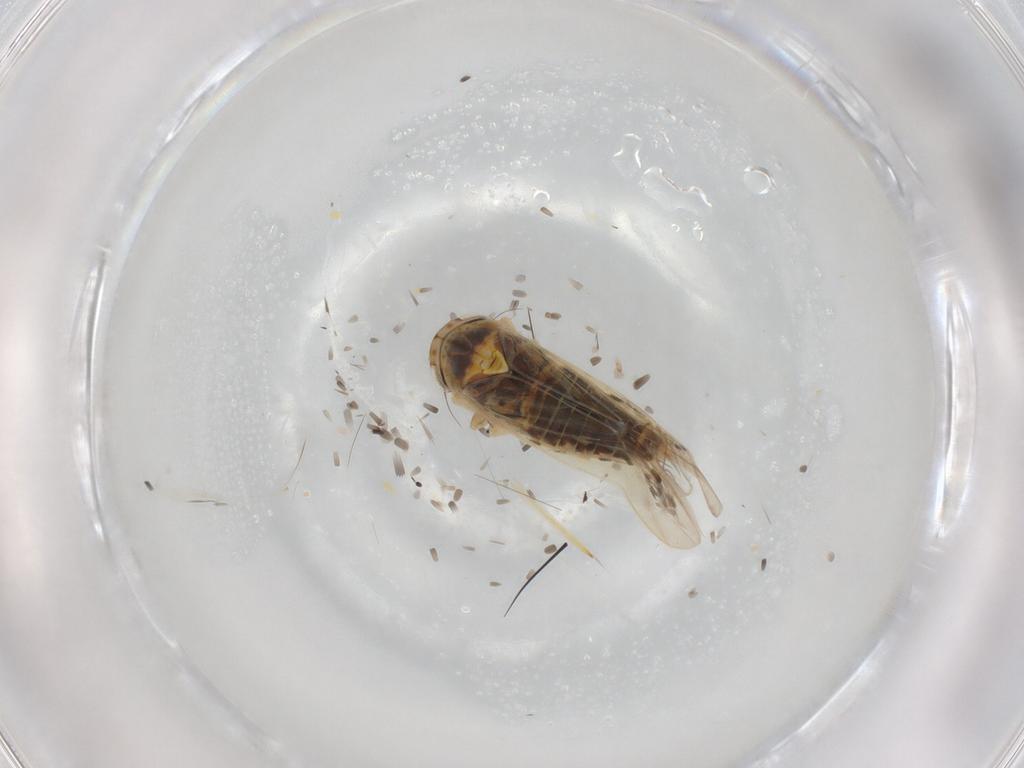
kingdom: Animalia
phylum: Arthropoda
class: Insecta
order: Hemiptera
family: Cicadellidae
